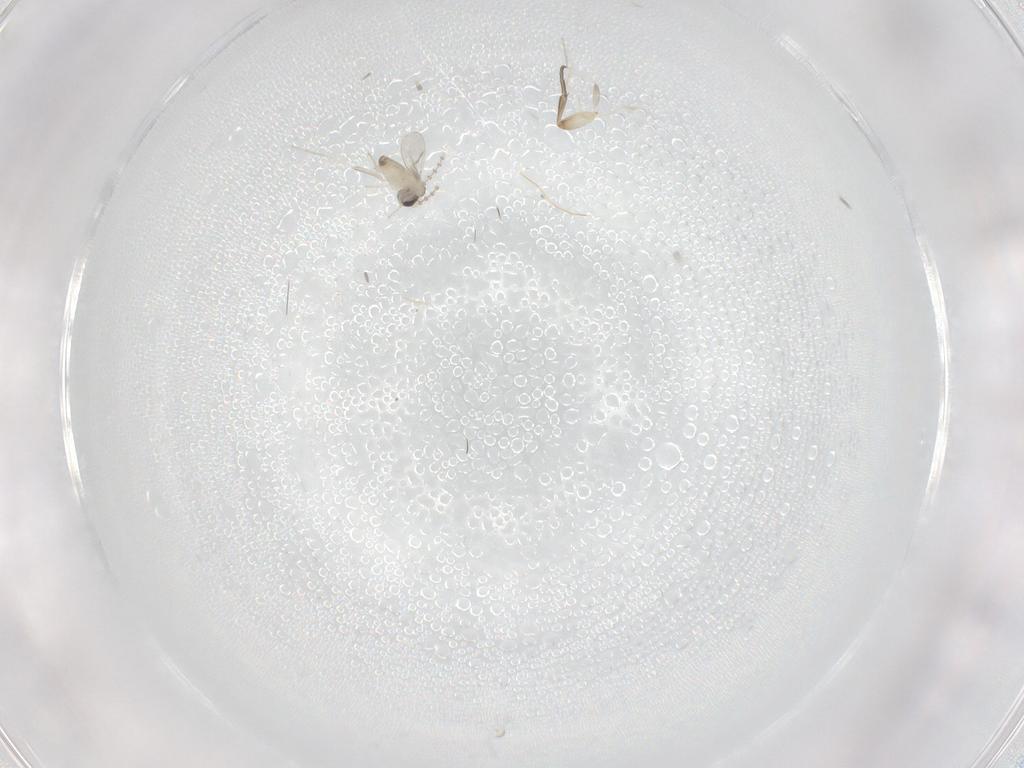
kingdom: Animalia
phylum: Arthropoda
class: Insecta
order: Diptera
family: Cecidomyiidae
